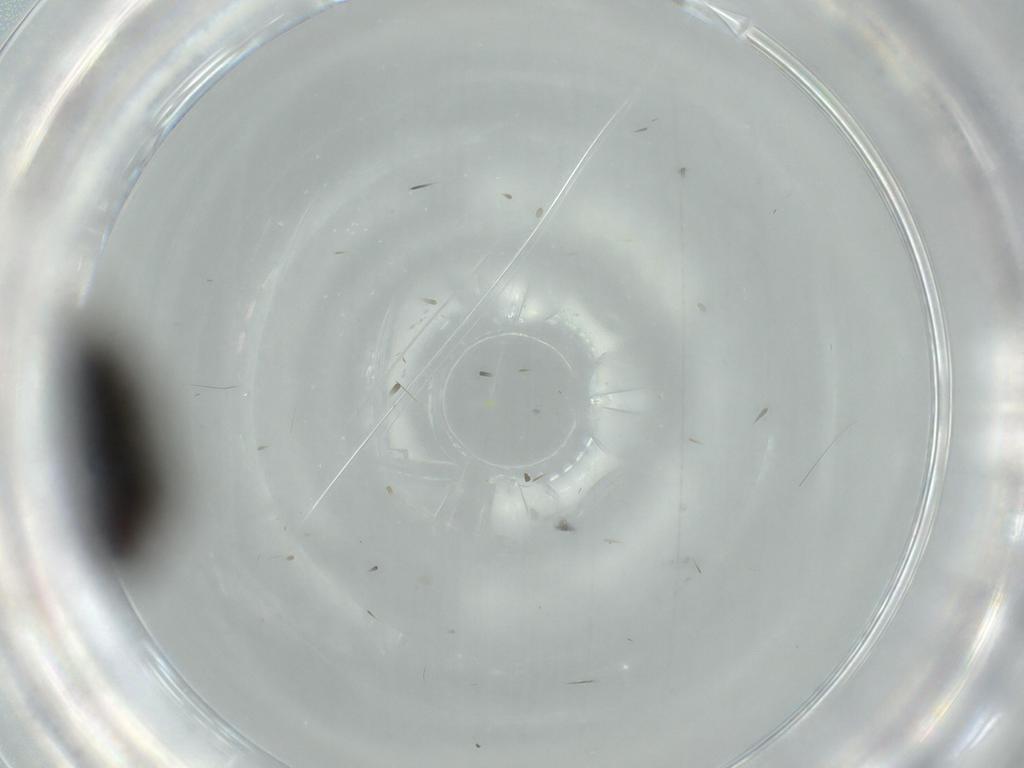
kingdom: Animalia
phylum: Arthropoda
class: Insecta
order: Diptera
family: Milichiidae
